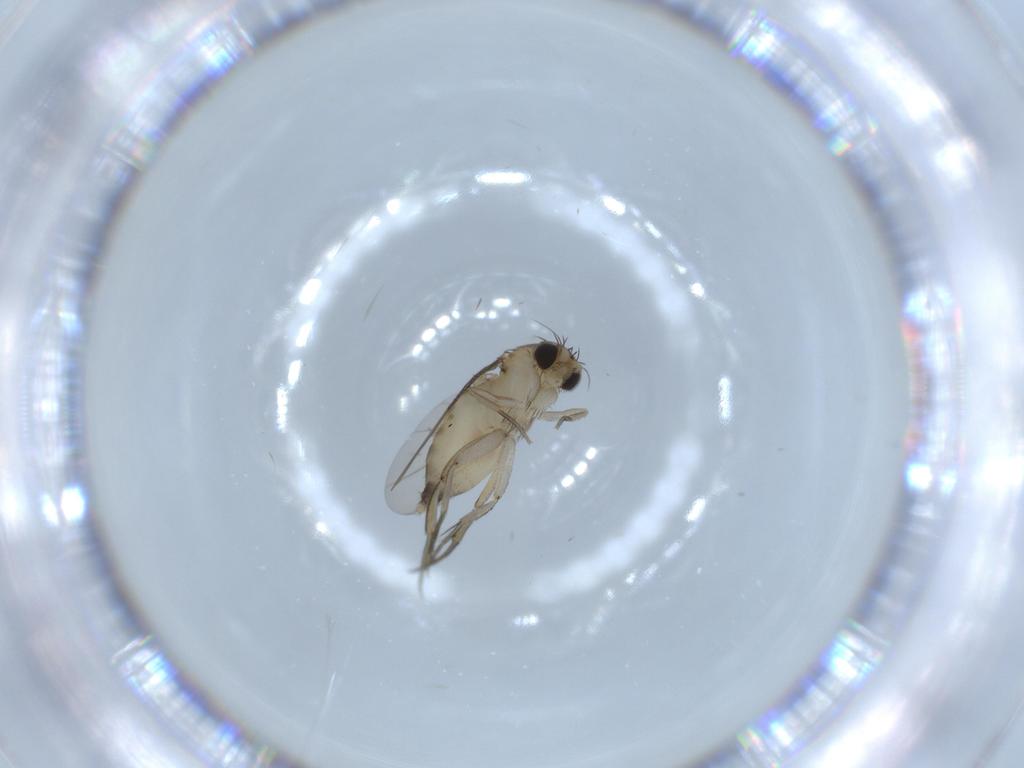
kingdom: Animalia
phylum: Arthropoda
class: Insecta
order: Diptera
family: Phoridae
